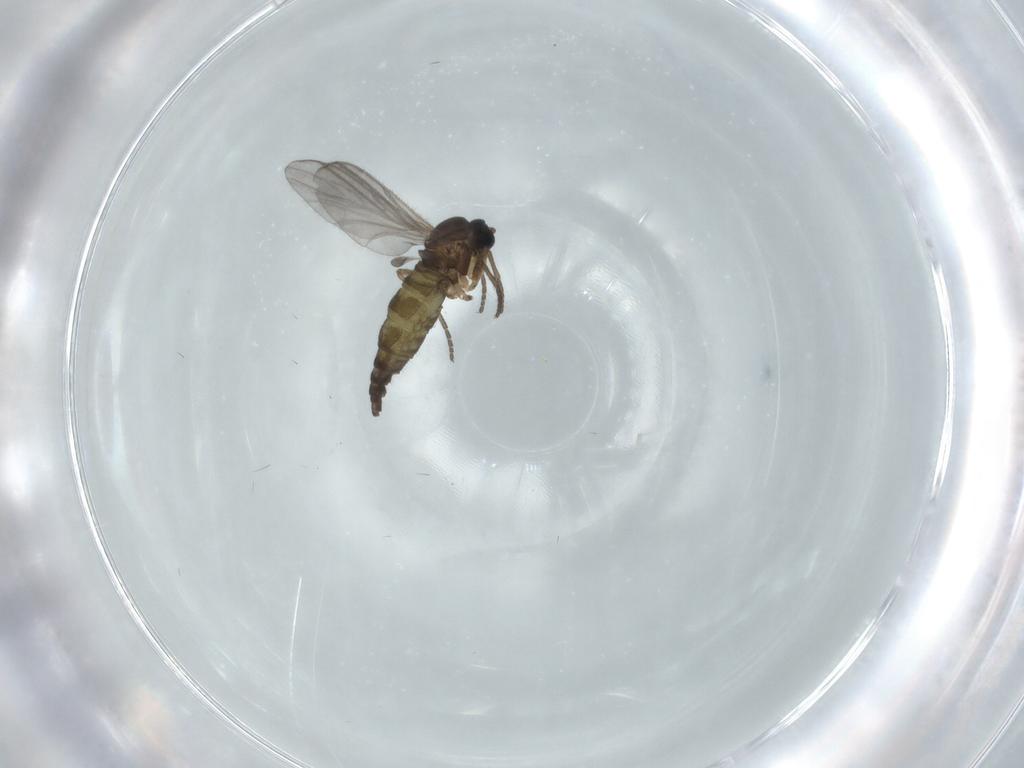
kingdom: Animalia
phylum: Arthropoda
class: Insecta
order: Diptera
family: Sciaridae
